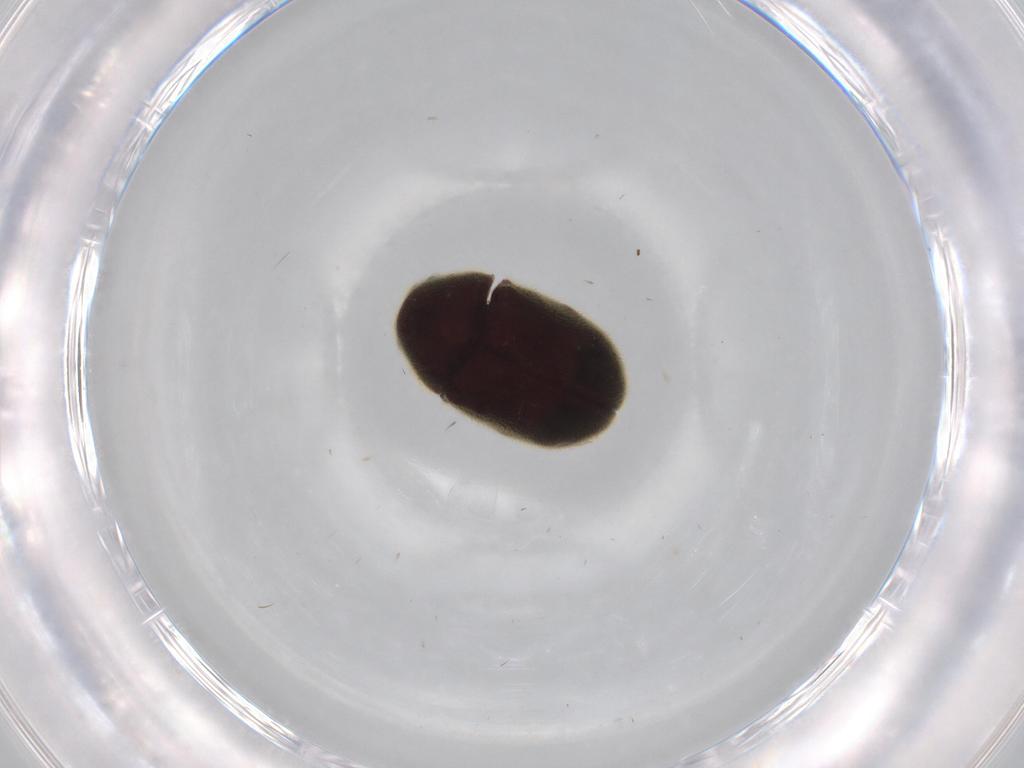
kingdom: Animalia
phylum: Arthropoda
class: Insecta
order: Coleoptera
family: Ptinidae
